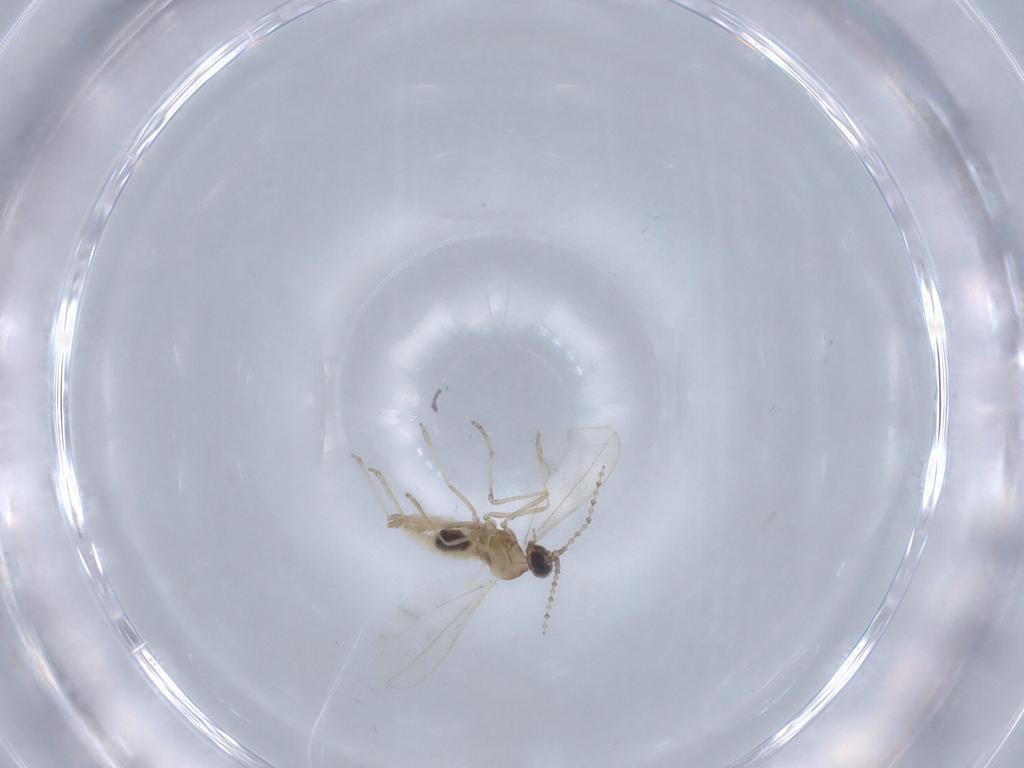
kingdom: Animalia
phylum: Arthropoda
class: Insecta
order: Diptera
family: Cecidomyiidae
